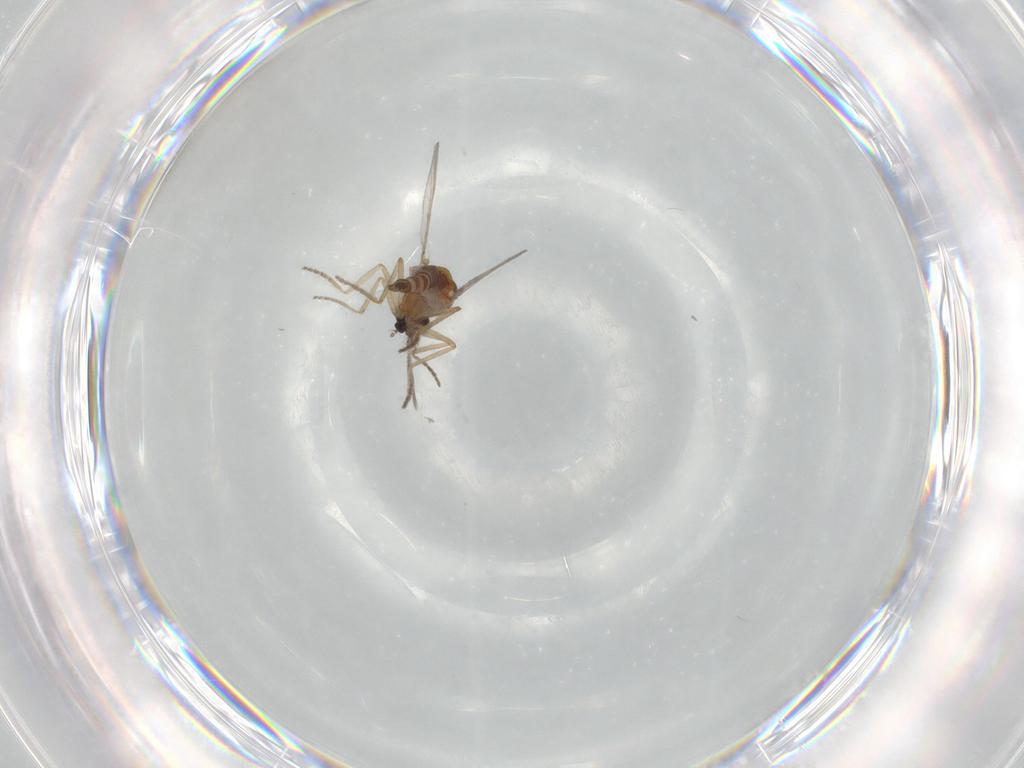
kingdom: Animalia
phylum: Arthropoda
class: Insecta
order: Diptera
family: Ceratopogonidae
